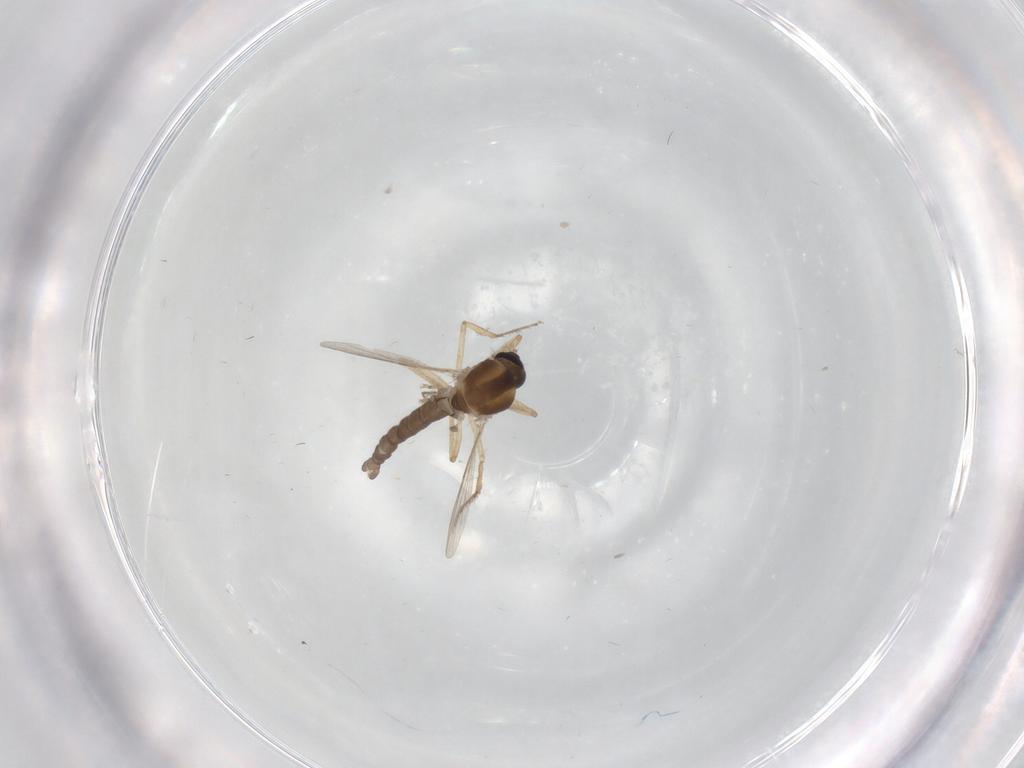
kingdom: Animalia
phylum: Arthropoda
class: Insecta
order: Diptera
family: Ceratopogonidae
